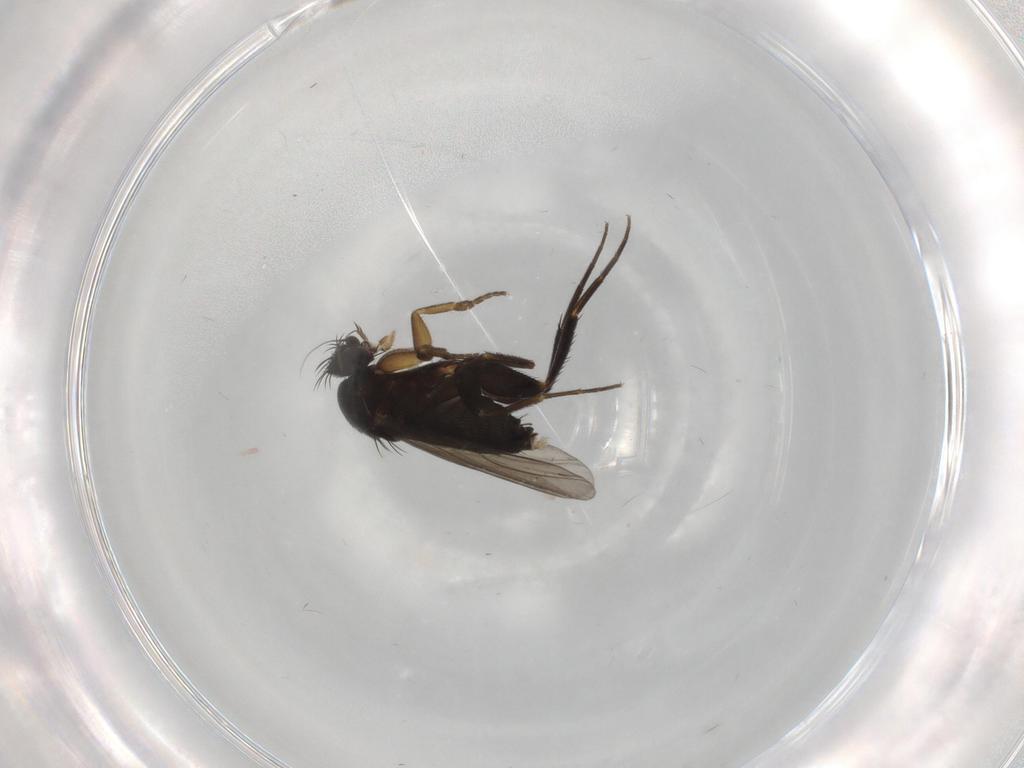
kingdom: Animalia
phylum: Arthropoda
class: Insecta
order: Diptera
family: Phoridae
